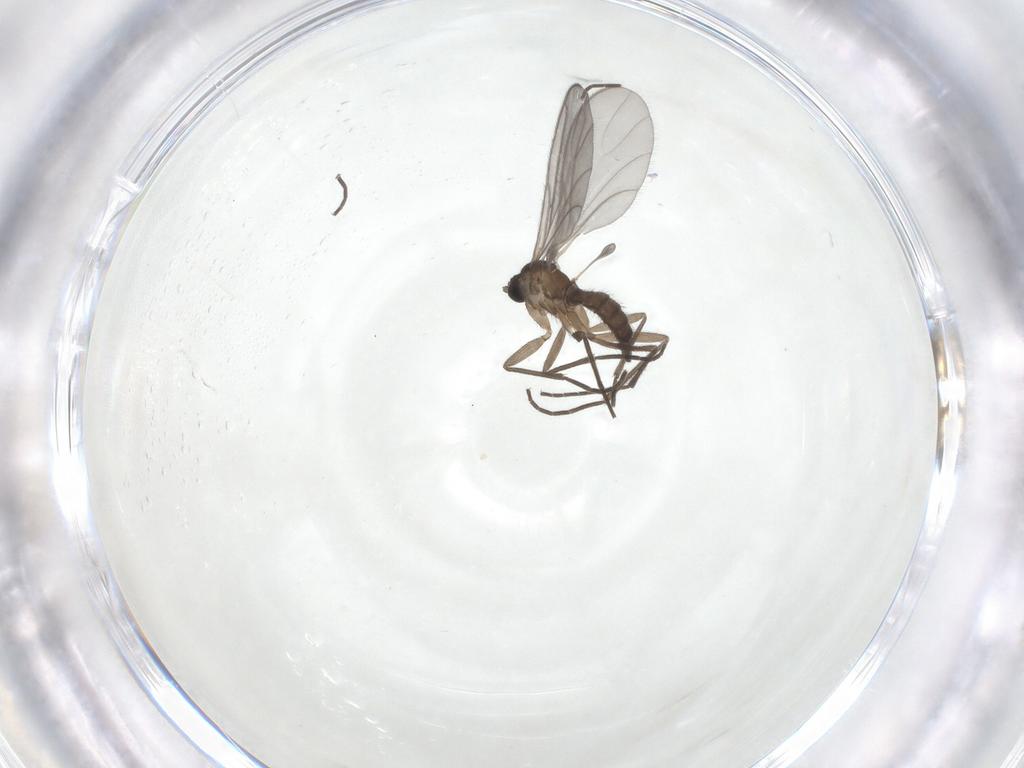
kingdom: Animalia
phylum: Arthropoda
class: Insecta
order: Diptera
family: Sciaridae
